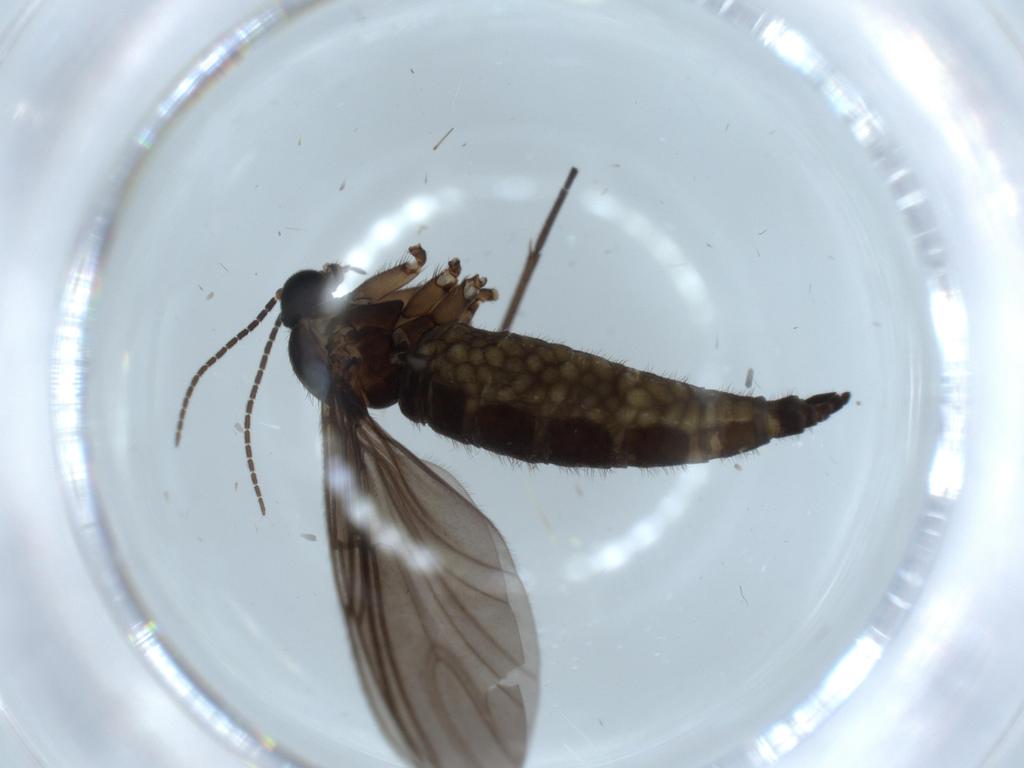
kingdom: Animalia
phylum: Arthropoda
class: Insecta
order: Diptera
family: Sciaridae
